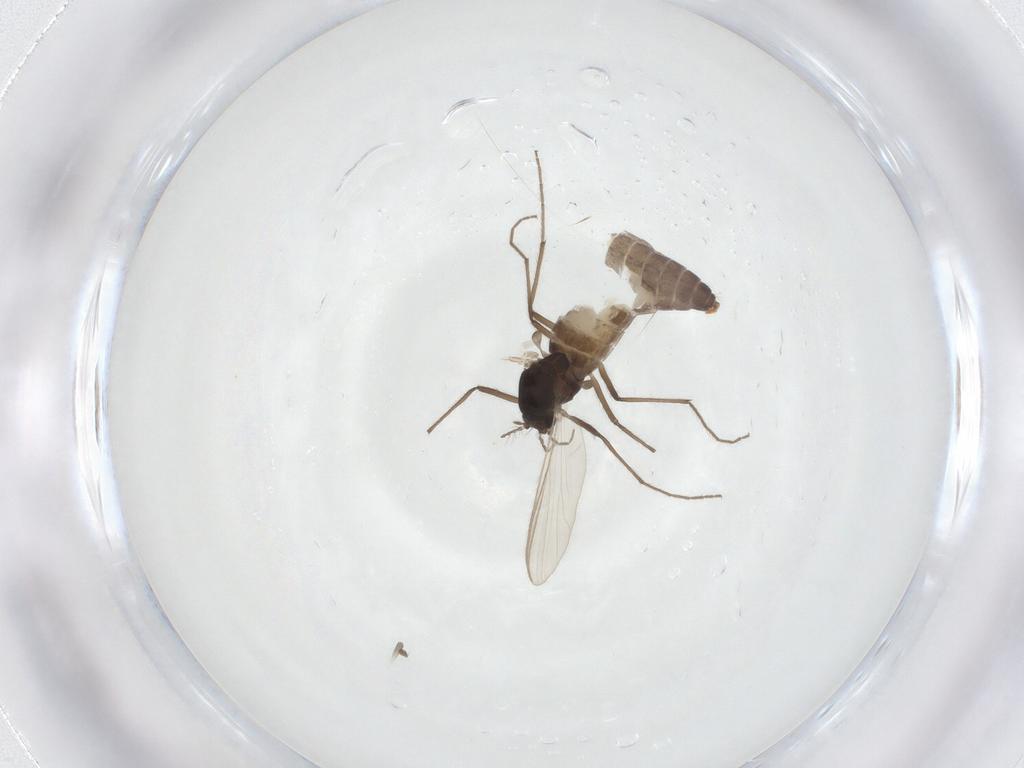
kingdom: Animalia
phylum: Arthropoda
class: Insecta
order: Diptera
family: Chironomidae
